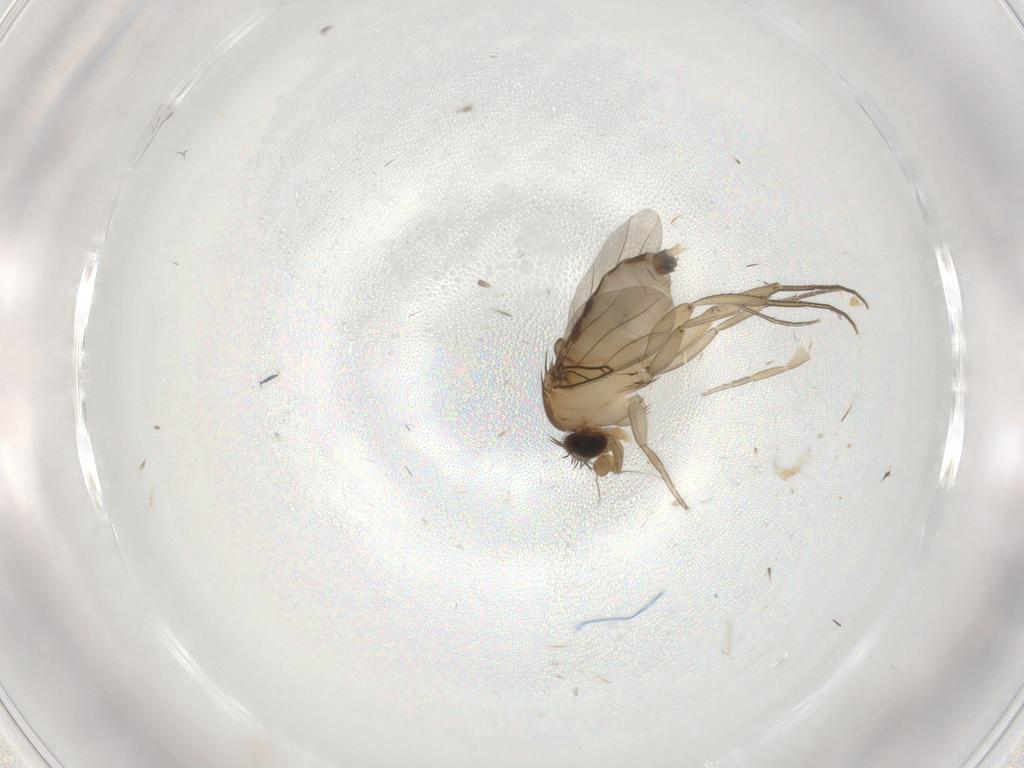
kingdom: Animalia
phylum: Arthropoda
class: Insecta
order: Diptera
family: Phoridae
